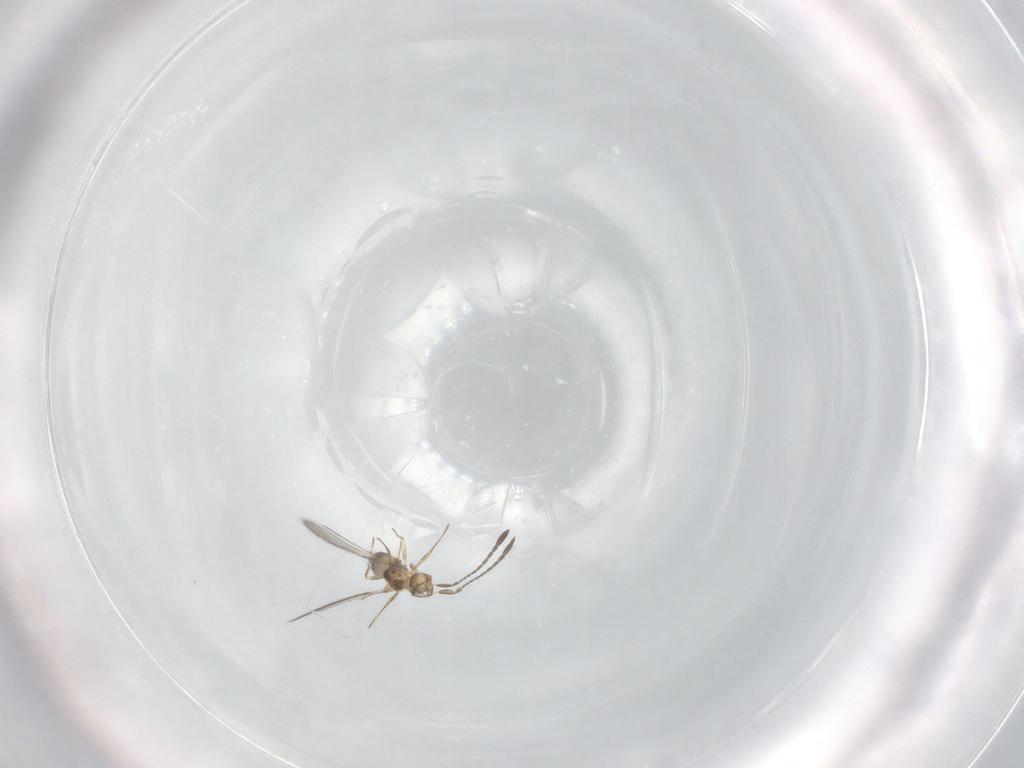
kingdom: Animalia
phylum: Arthropoda
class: Insecta
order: Hymenoptera
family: Mymaridae
